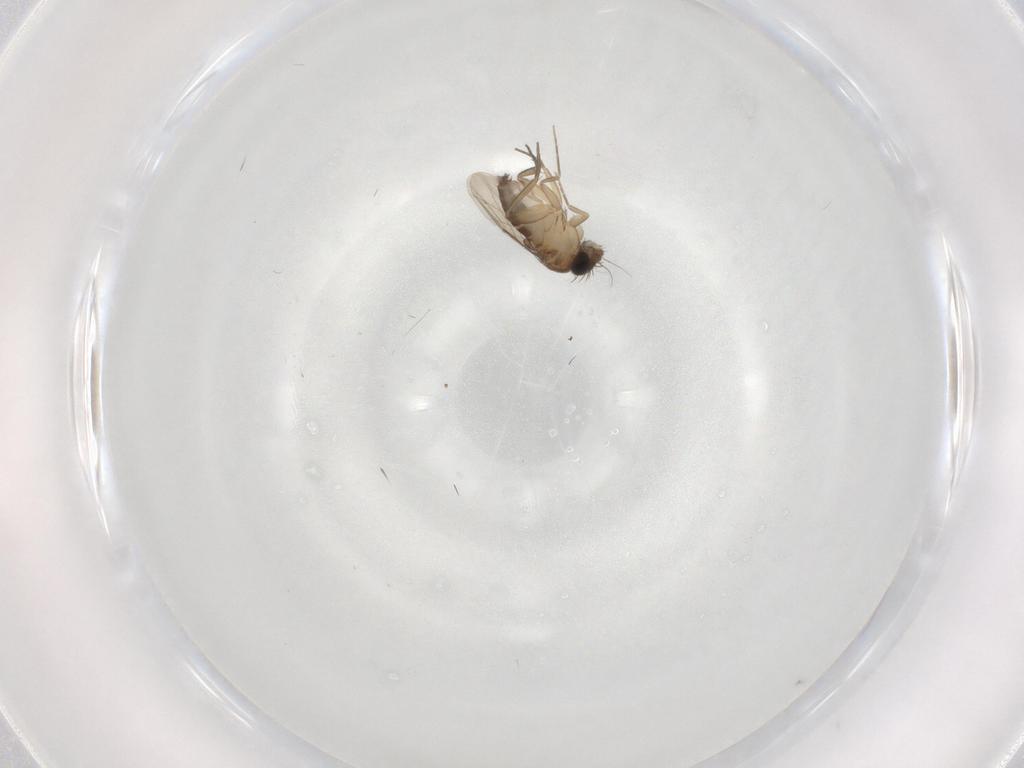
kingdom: Animalia
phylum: Arthropoda
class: Insecta
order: Diptera
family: Phoridae
